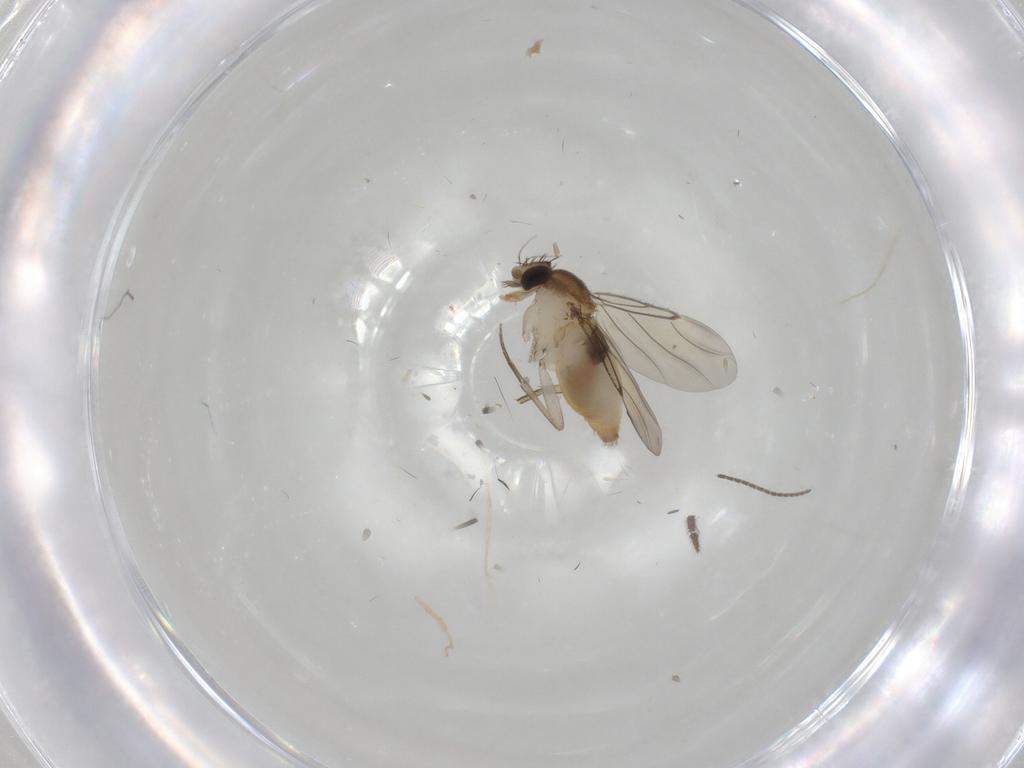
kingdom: Animalia
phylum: Arthropoda
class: Insecta
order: Diptera
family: Phoridae
